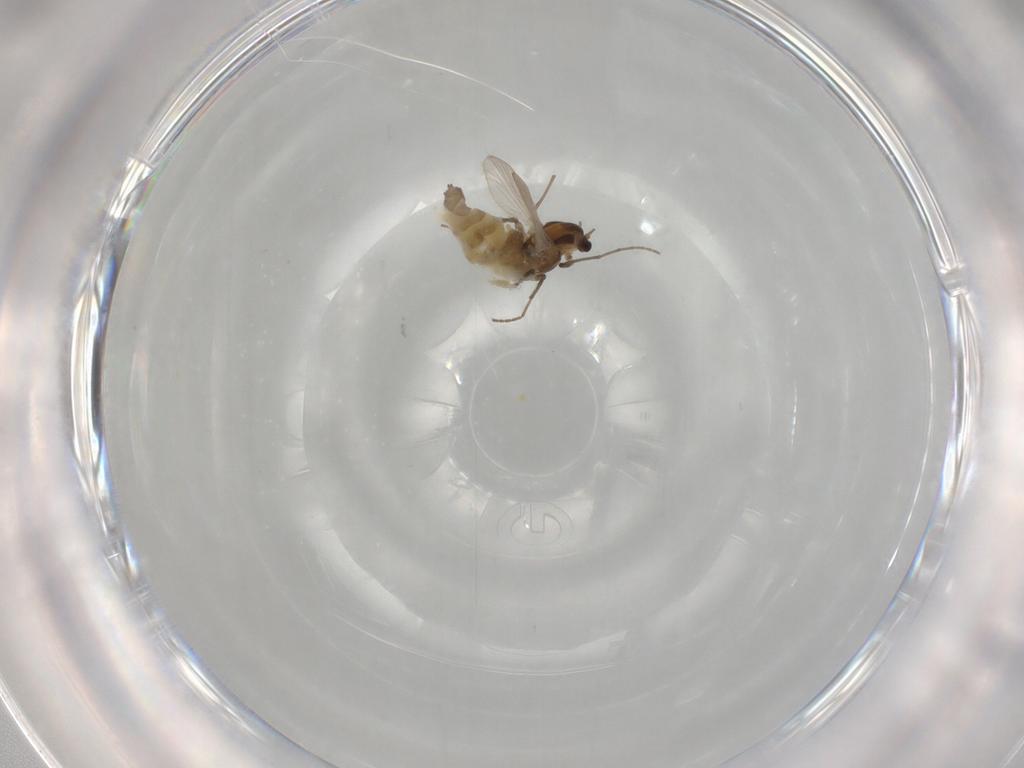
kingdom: Animalia
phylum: Arthropoda
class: Insecta
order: Diptera
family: Chironomidae
